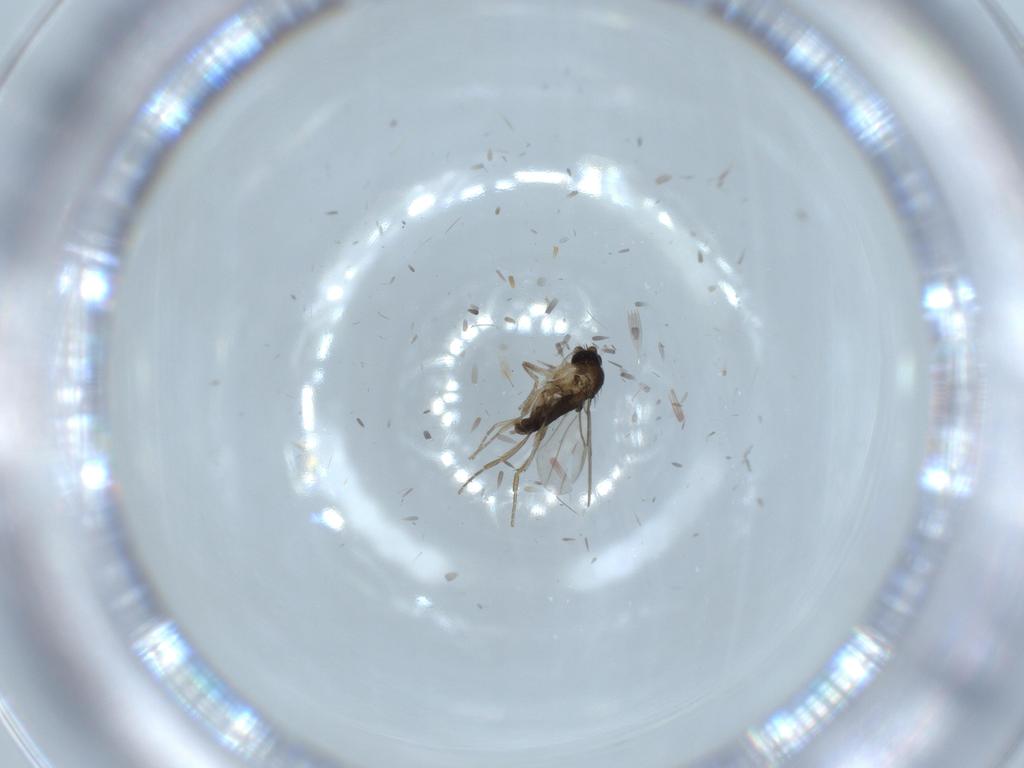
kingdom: Animalia
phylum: Arthropoda
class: Insecta
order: Diptera
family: Phoridae
